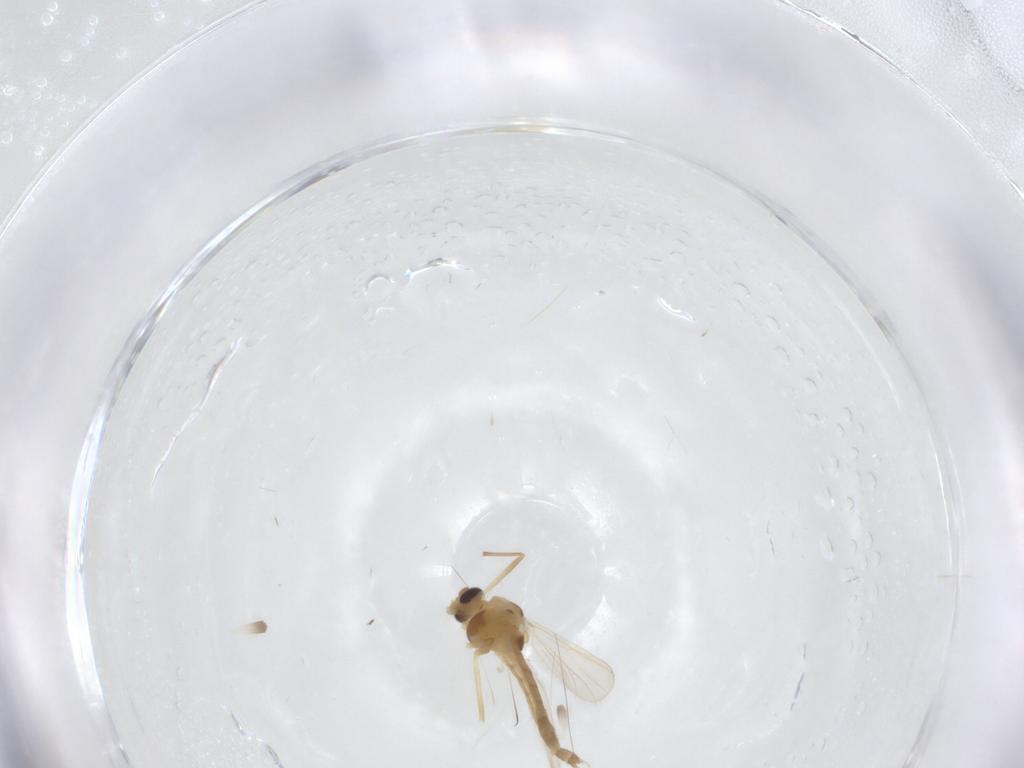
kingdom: Animalia
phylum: Arthropoda
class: Insecta
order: Diptera
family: Chironomidae
